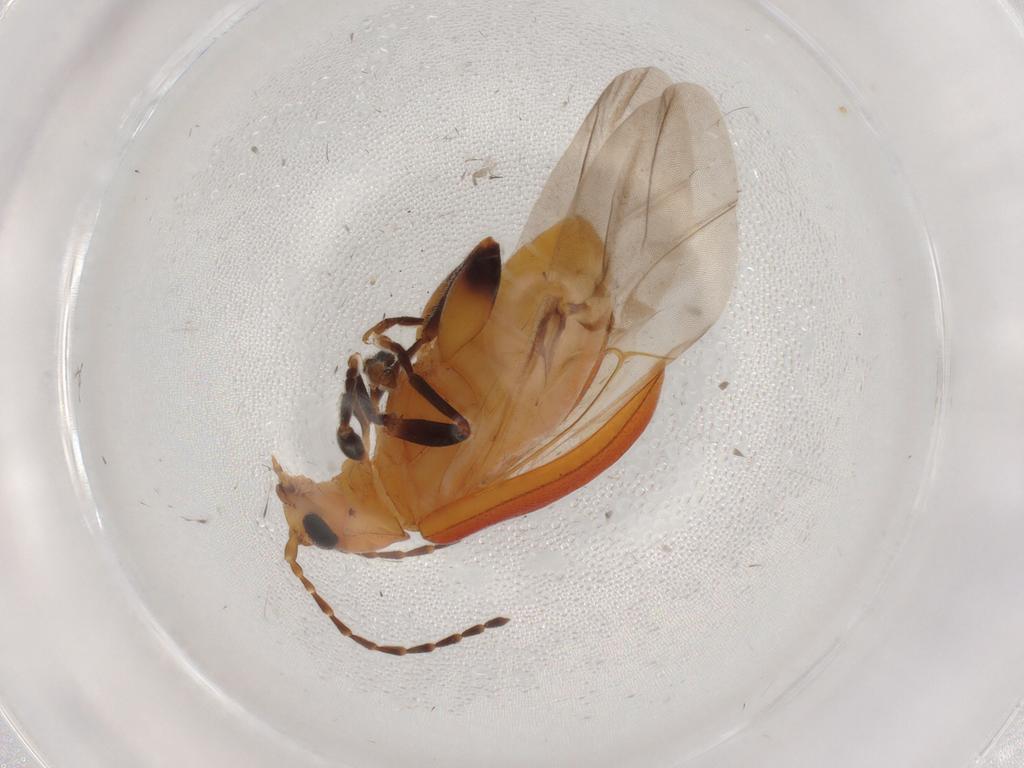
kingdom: Animalia
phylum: Arthropoda
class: Insecta
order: Coleoptera
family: Chrysomelidae
